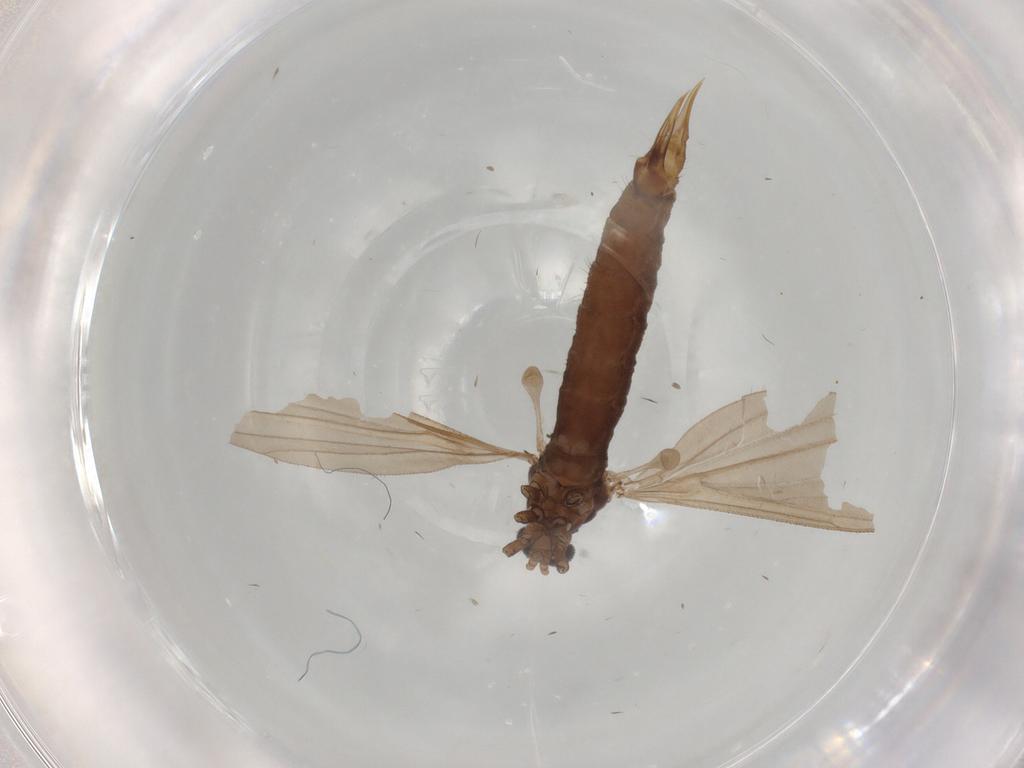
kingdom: Animalia
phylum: Arthropoda
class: Insecta
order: Diptera
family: Limoniidae
